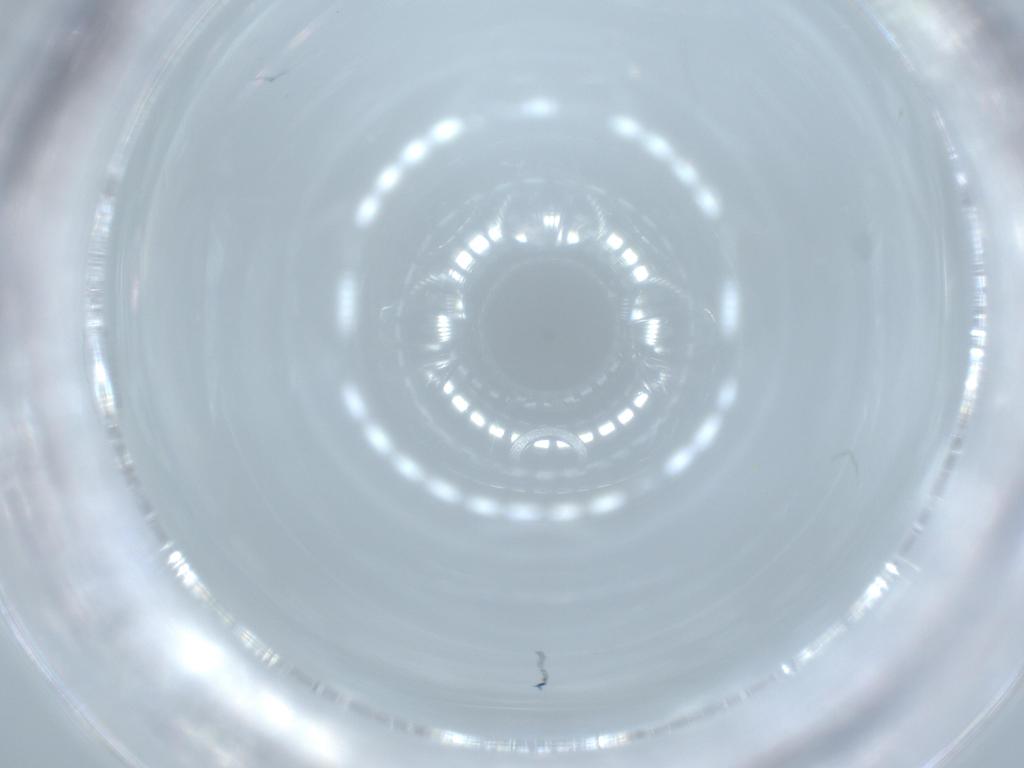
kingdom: Animalia
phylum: Arthropoda
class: Insecta
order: Diptera
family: Chironomidae
